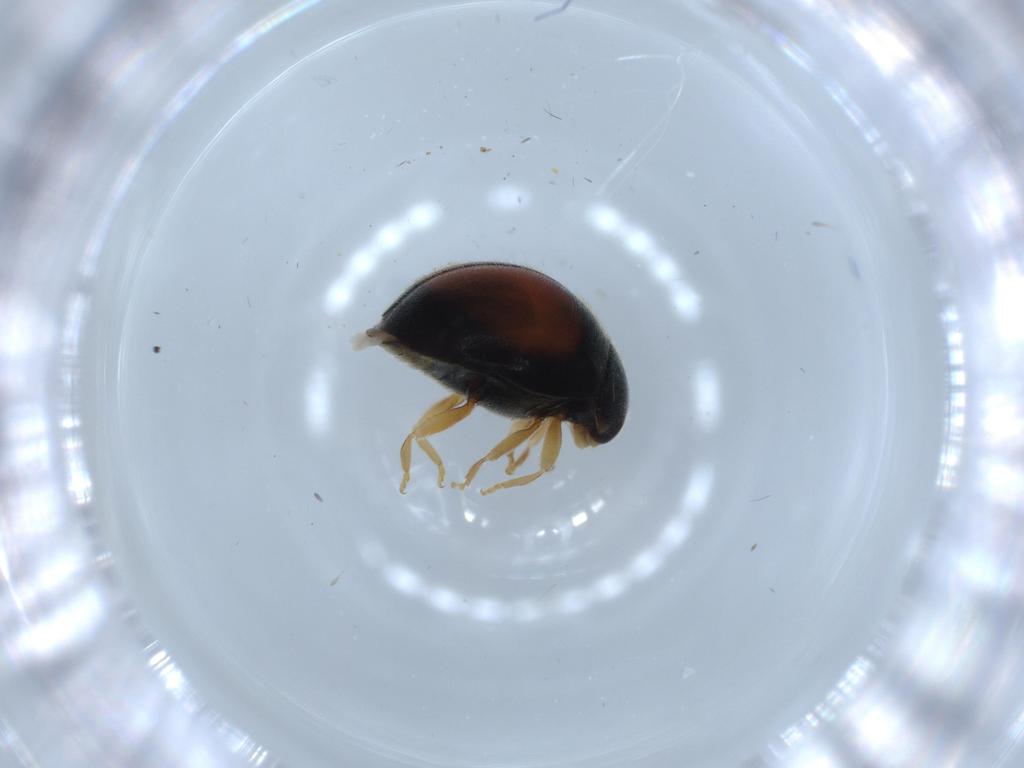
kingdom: Animalia
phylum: Arthropoda
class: Insecta
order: Coleoptera
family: Coccinellidae
